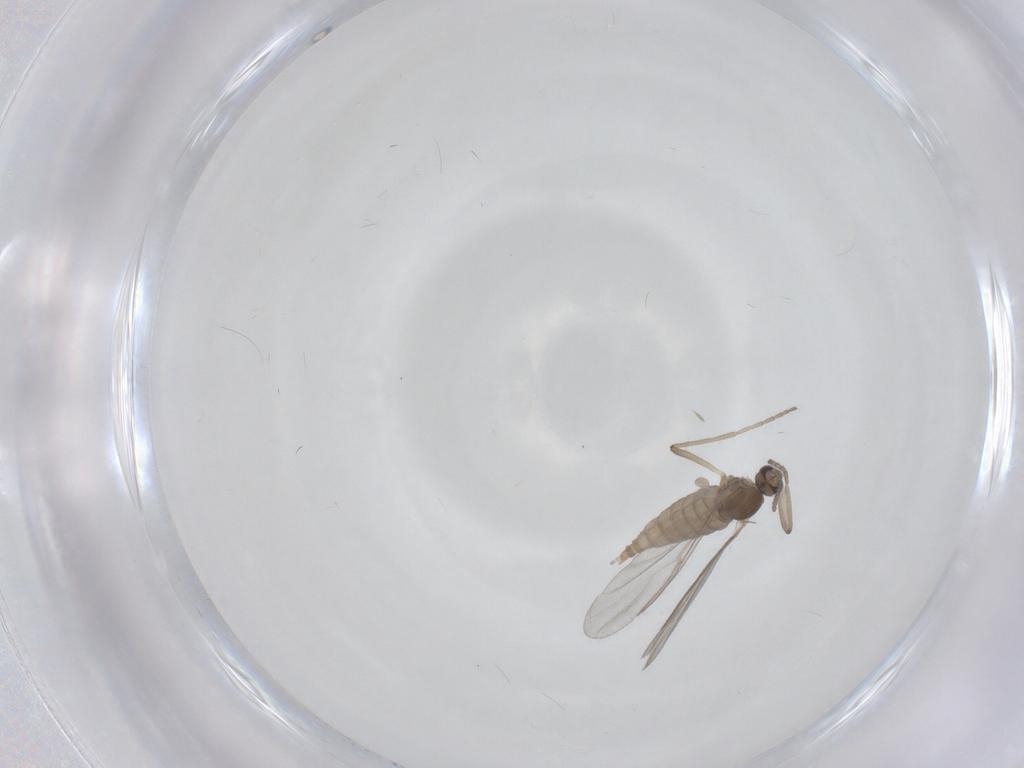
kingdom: Animalia
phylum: Arthropoda
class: Insecta
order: Diptera
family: Cecidomyiidae
